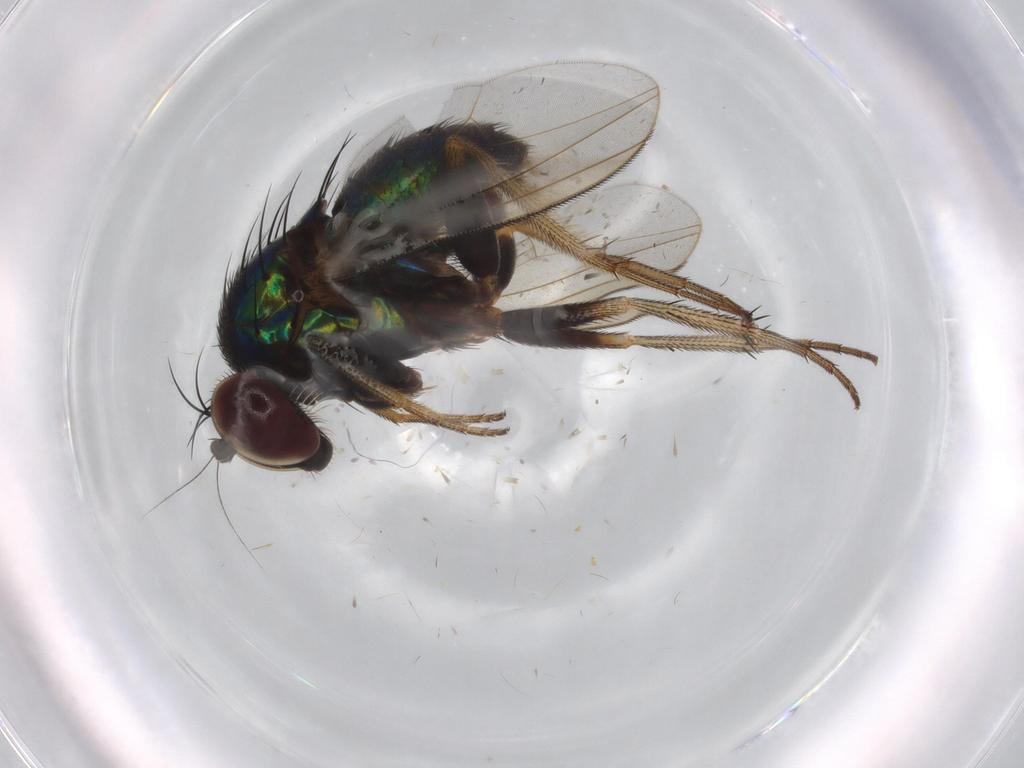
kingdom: Animalia
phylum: Arthropoda
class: Insecta
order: Diptera
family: Dolichopodidae
